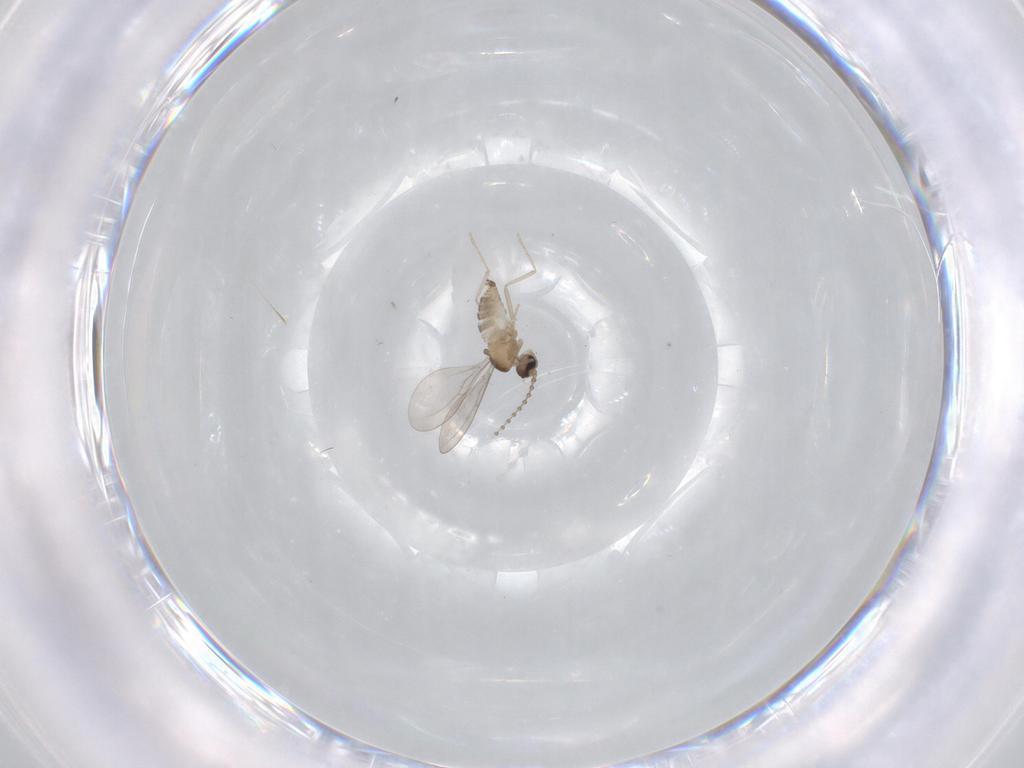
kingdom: Animalia
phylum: Arthropoda
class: Insecta
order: Diptera
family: Cecidomyiidae
